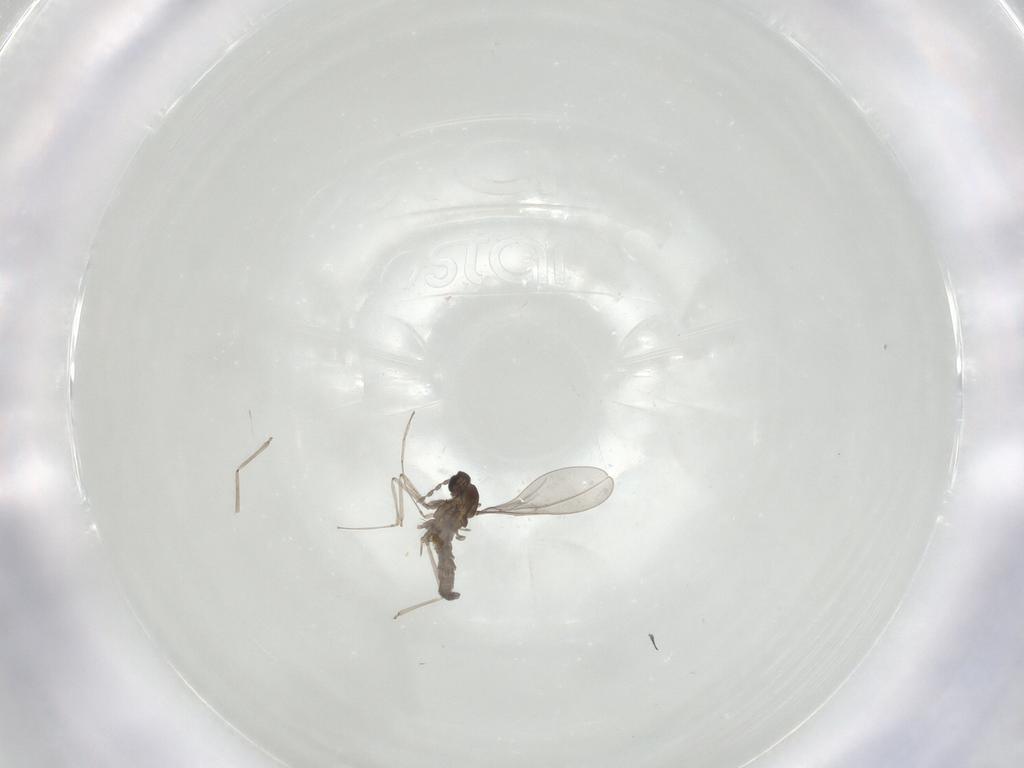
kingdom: Animalia
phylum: Arthropoda
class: Insecta
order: Diptera
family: Cecidomyiidae
